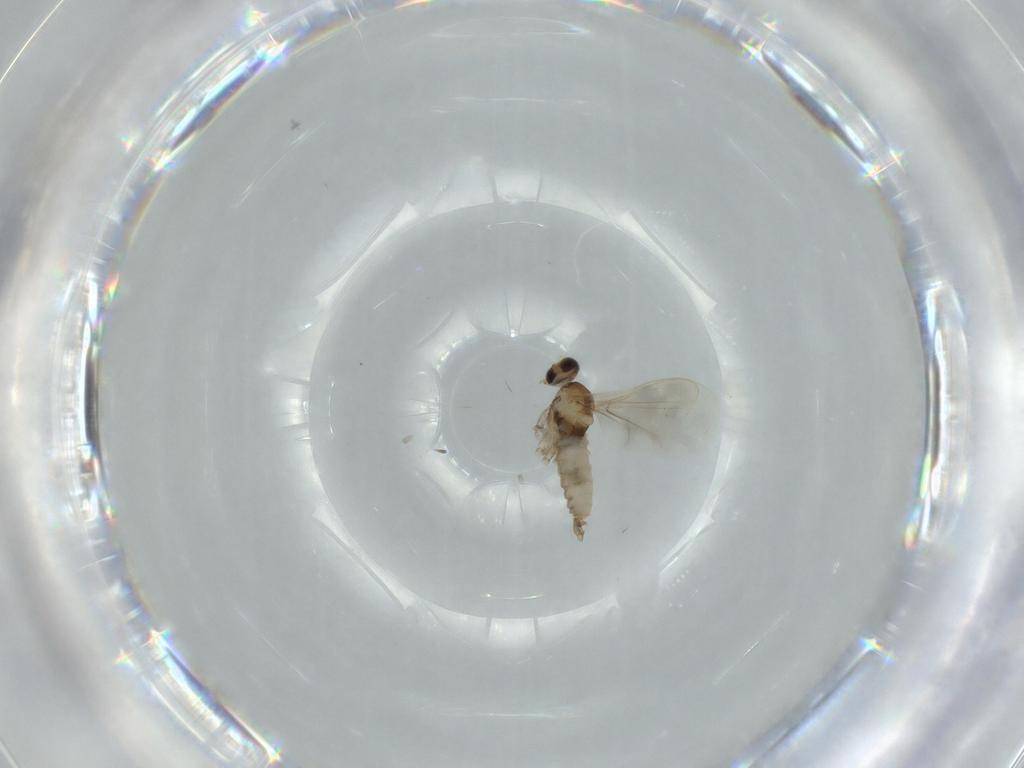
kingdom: Animalia
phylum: Arthropoda
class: Insecta
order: Diptera
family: Cecidomyiidae
